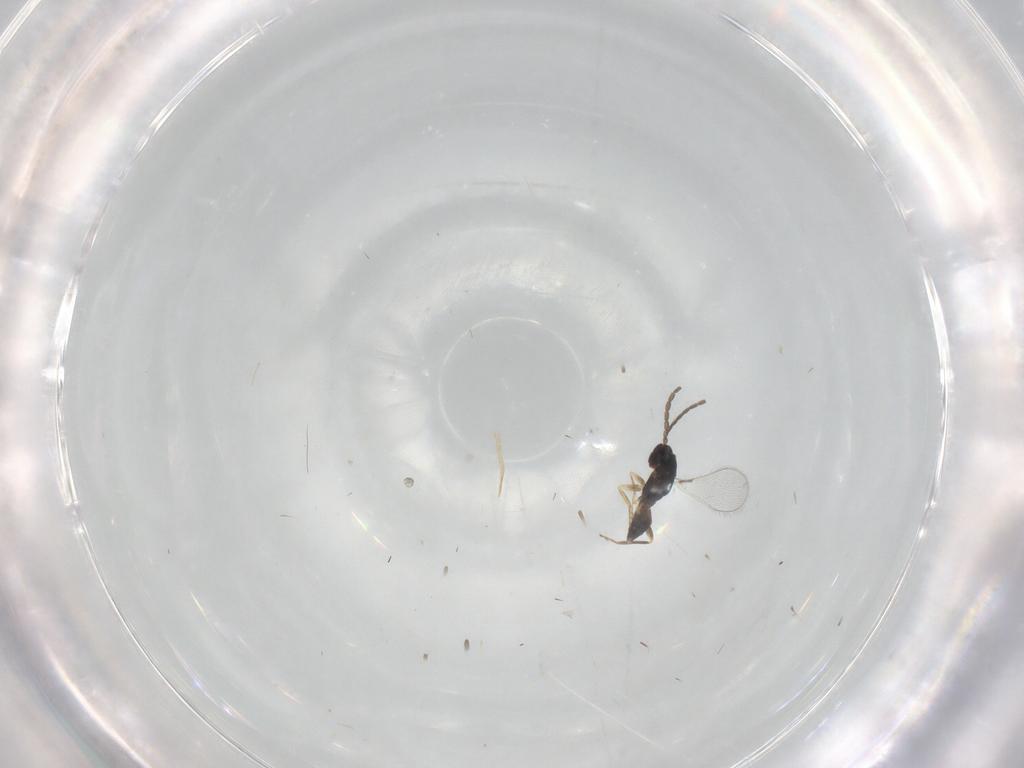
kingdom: Animalia
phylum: Arthropoda
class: Insecta
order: Hymenoptera
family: Mymaridae
